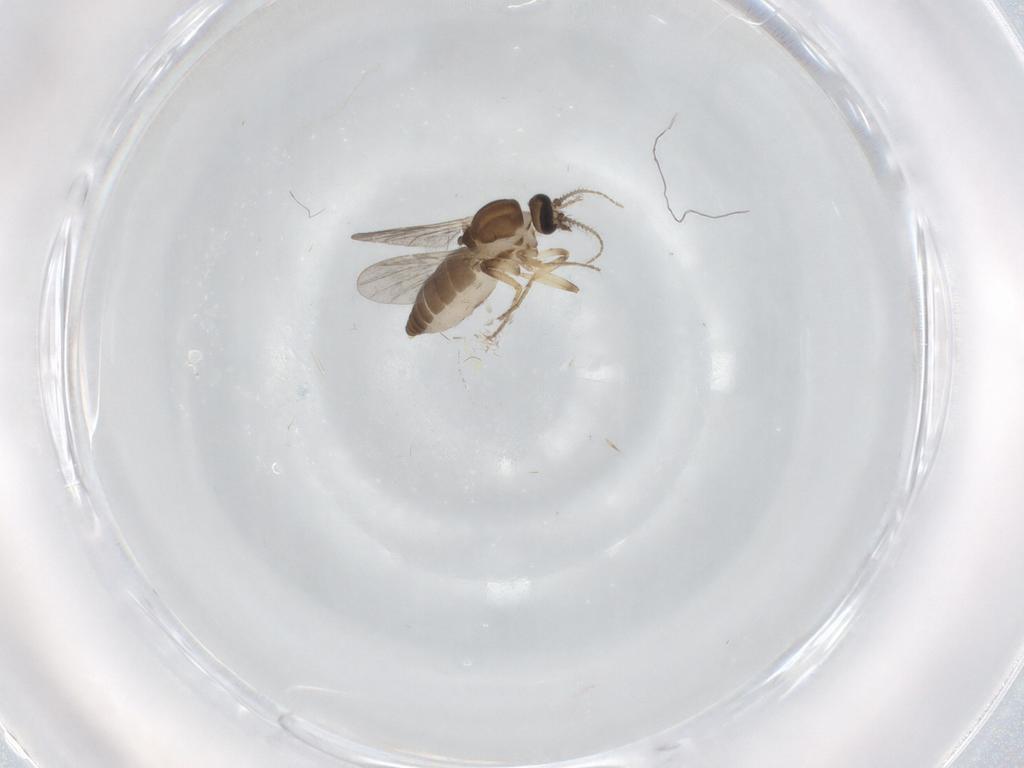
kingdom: Animalia
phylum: Arthropoda
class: Insecta
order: Diptera
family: Ceratopogonidae
